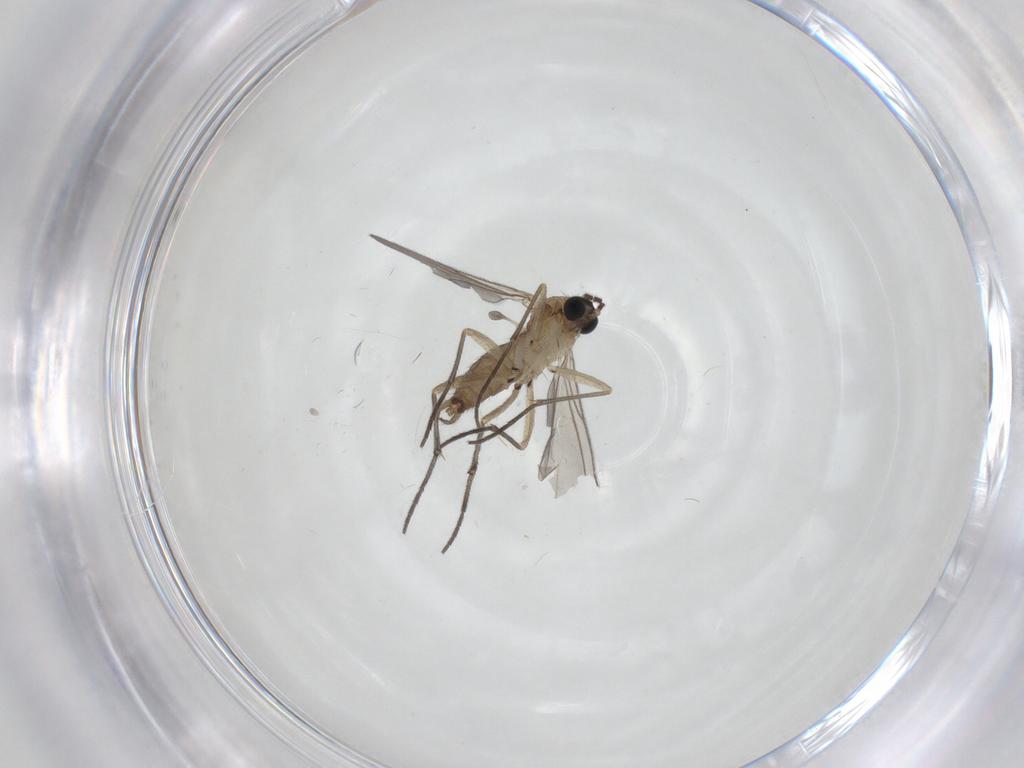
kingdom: Animalia
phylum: Arthropoda
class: Insecta
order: Diptera
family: Sciaridae
